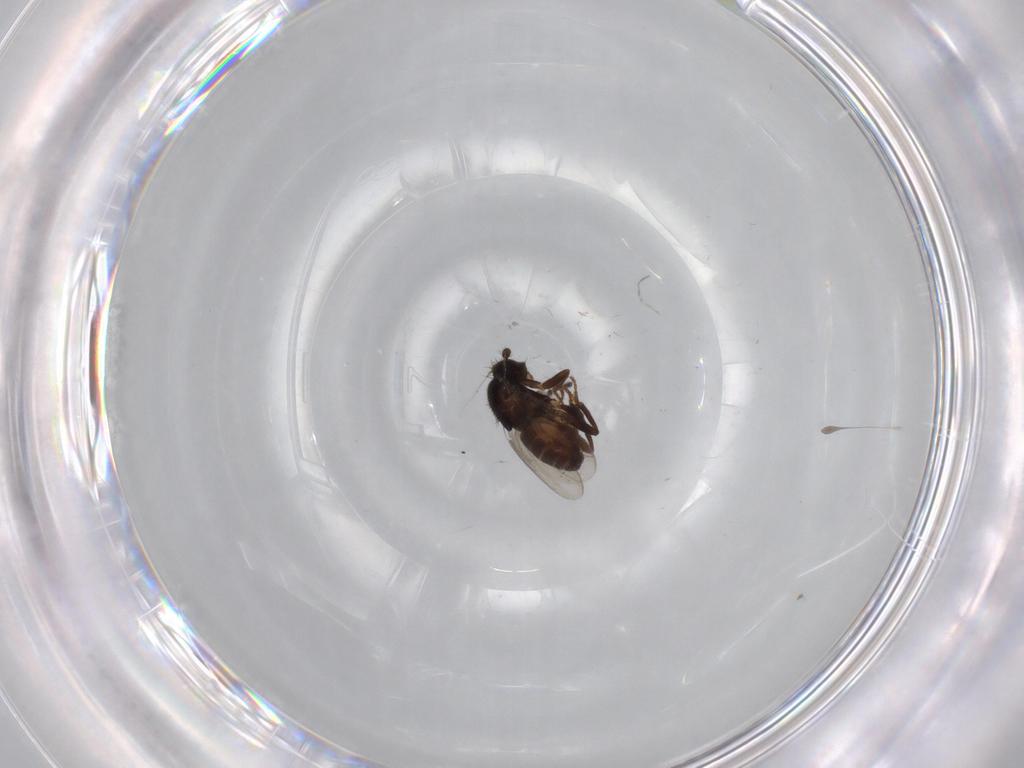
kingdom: Animalia
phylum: Arthropoda
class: Insecta
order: Diptera
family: Sphaeroceridae
